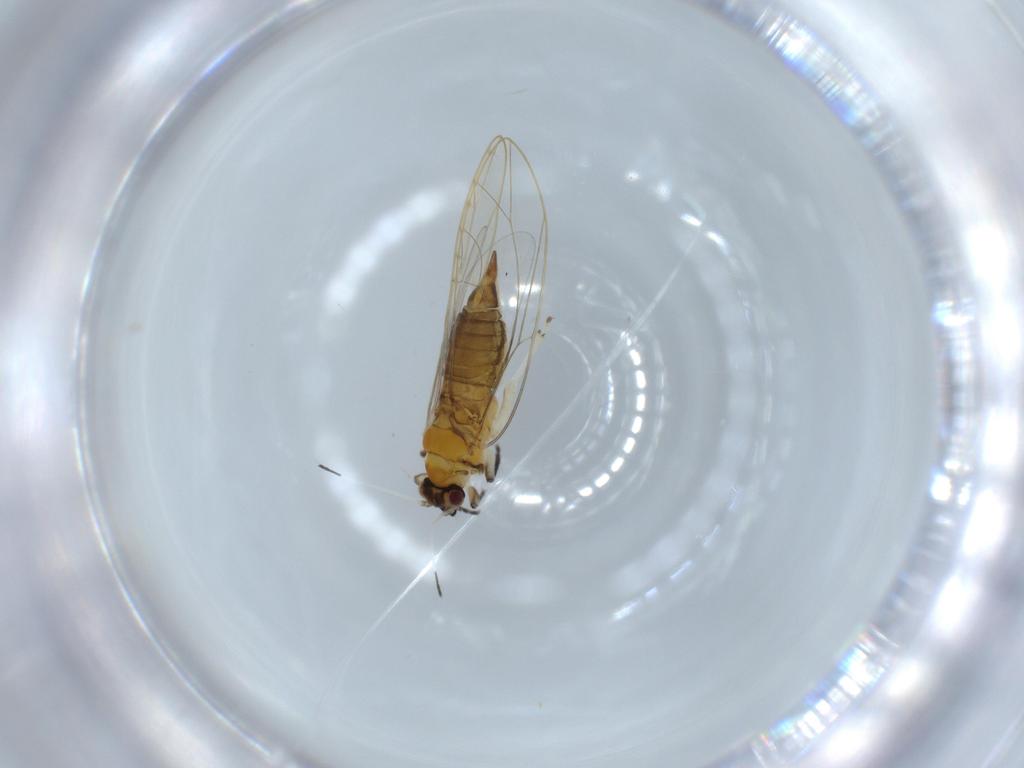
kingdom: Animalia
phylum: Arthropoda
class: Insecta
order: Hemiptera
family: Triozidae
